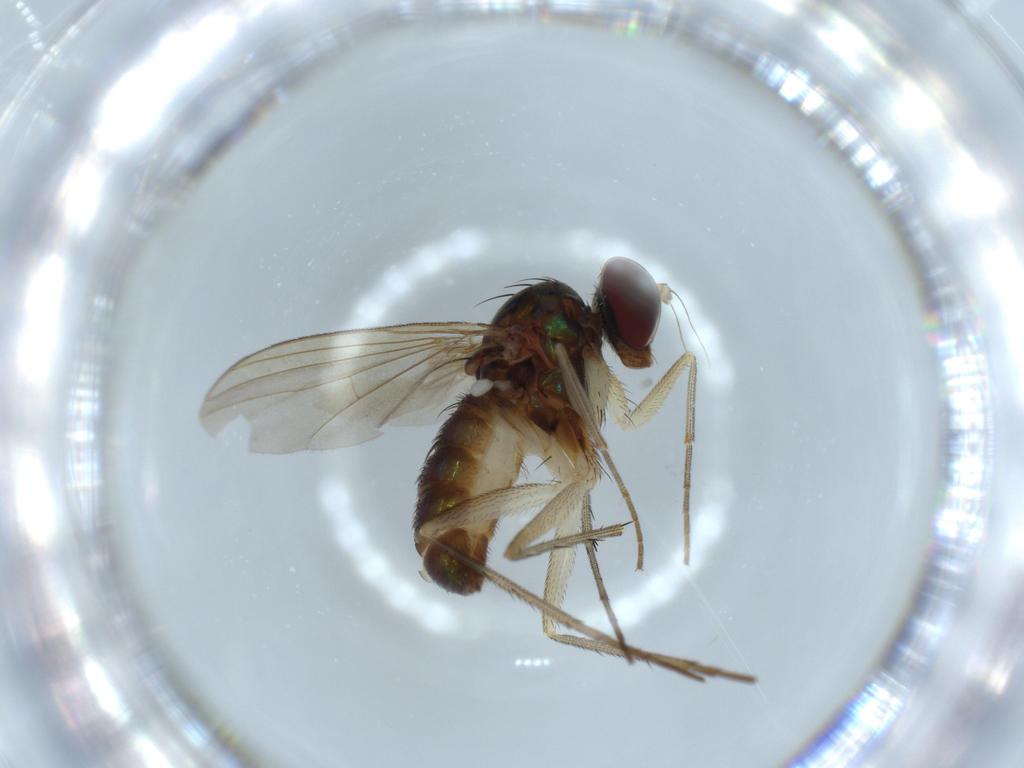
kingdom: Animalia
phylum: Arthropoda
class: Insecta
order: Diptera
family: Dolichopodidae
